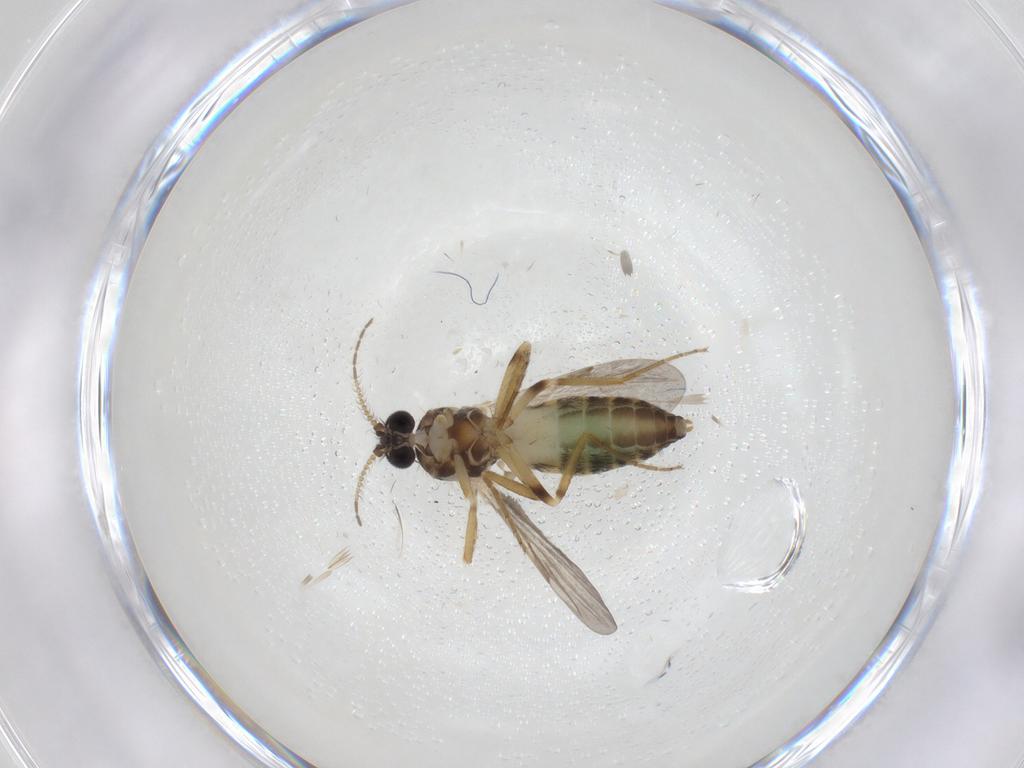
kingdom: Animalia
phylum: Arthropoda
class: Insecta
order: Diptera
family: Ceratopogonidae
